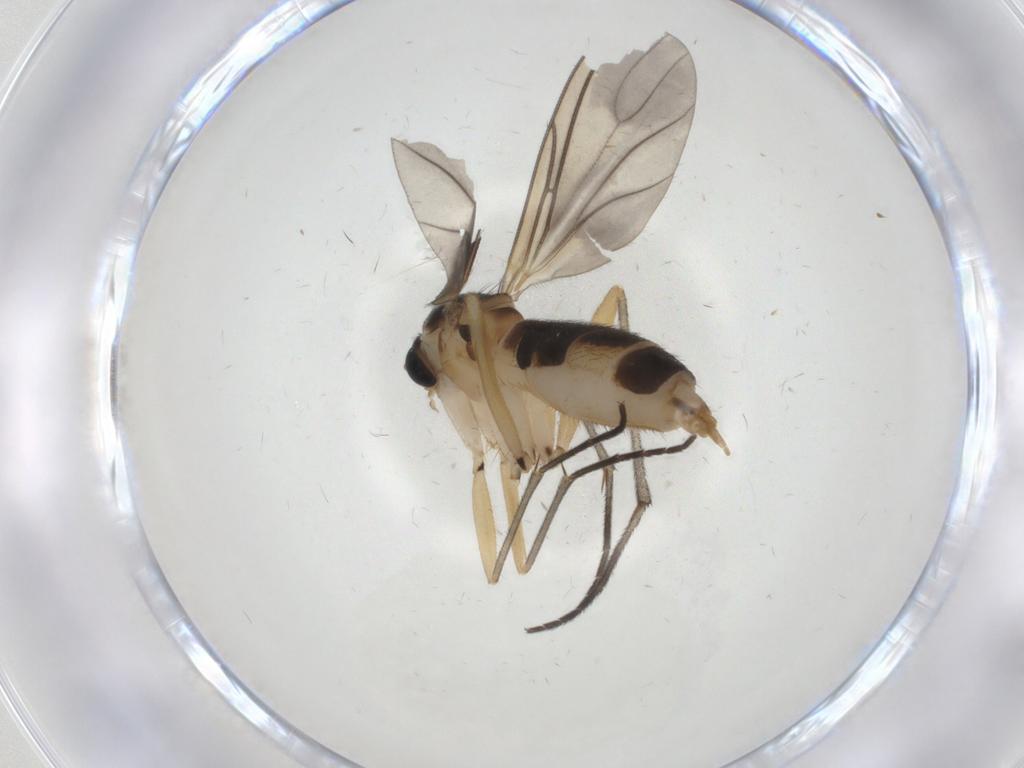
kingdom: Animalia
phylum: Arthropoda
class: Insecta
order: Diptera
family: Sciaridae
